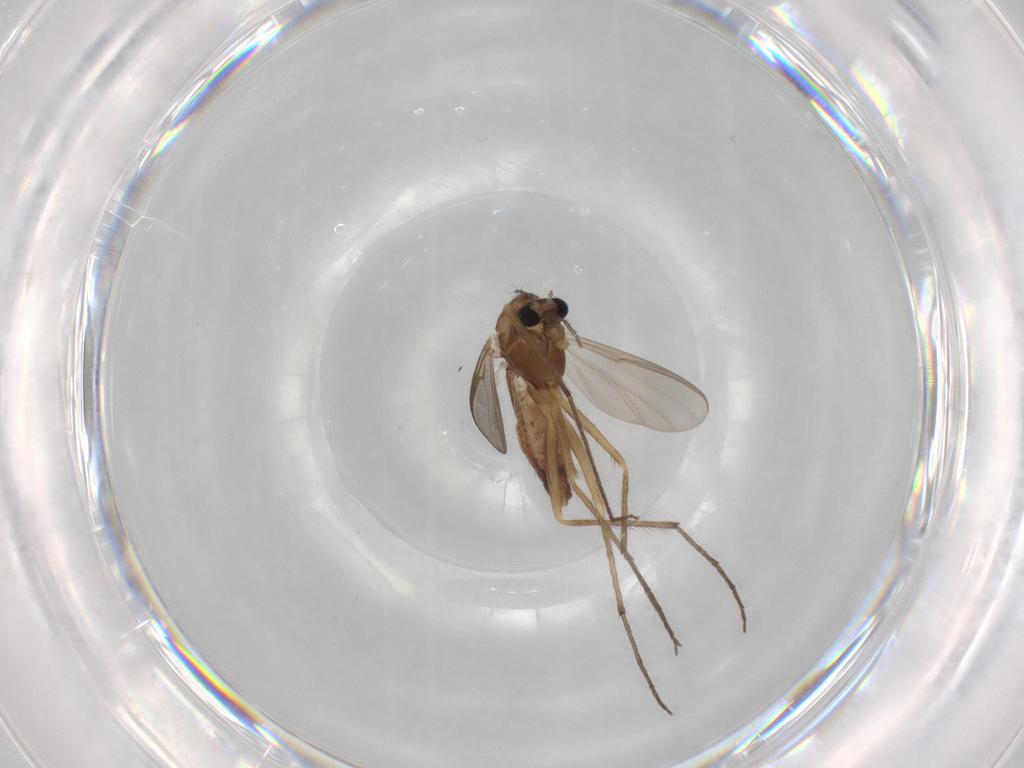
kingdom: Animalia
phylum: Arthropoda
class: Insecta
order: Diptera
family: Chironomidae
